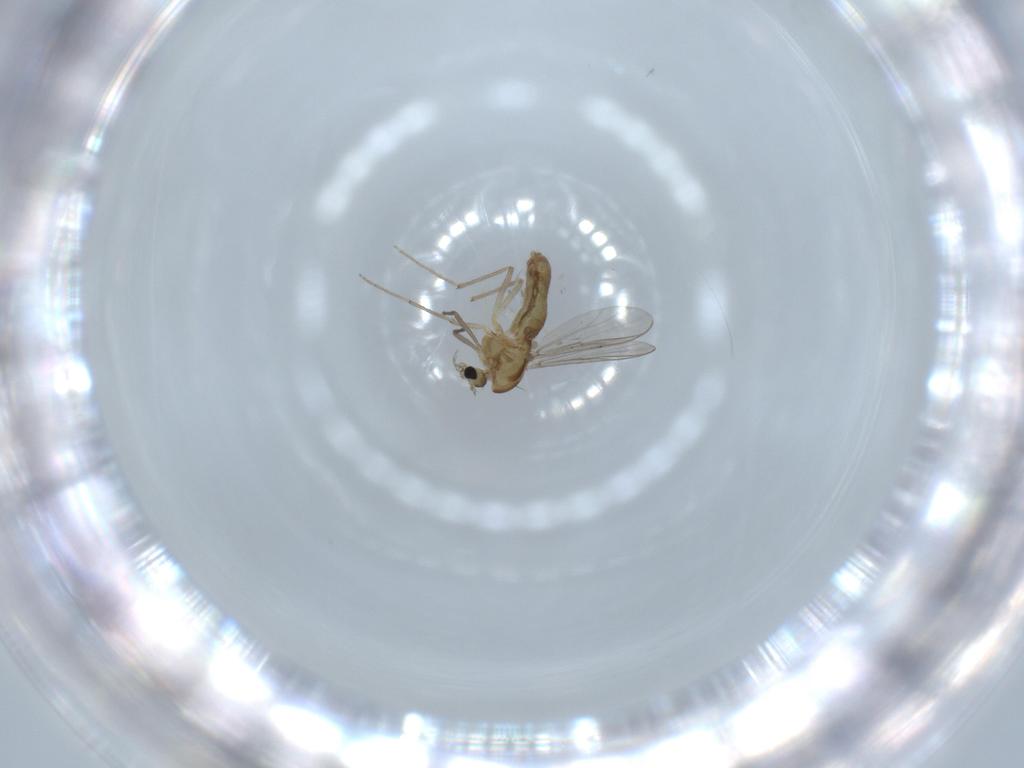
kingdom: Animalia
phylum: Arthropoda
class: Insecta
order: Diptera
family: Chironomidae
